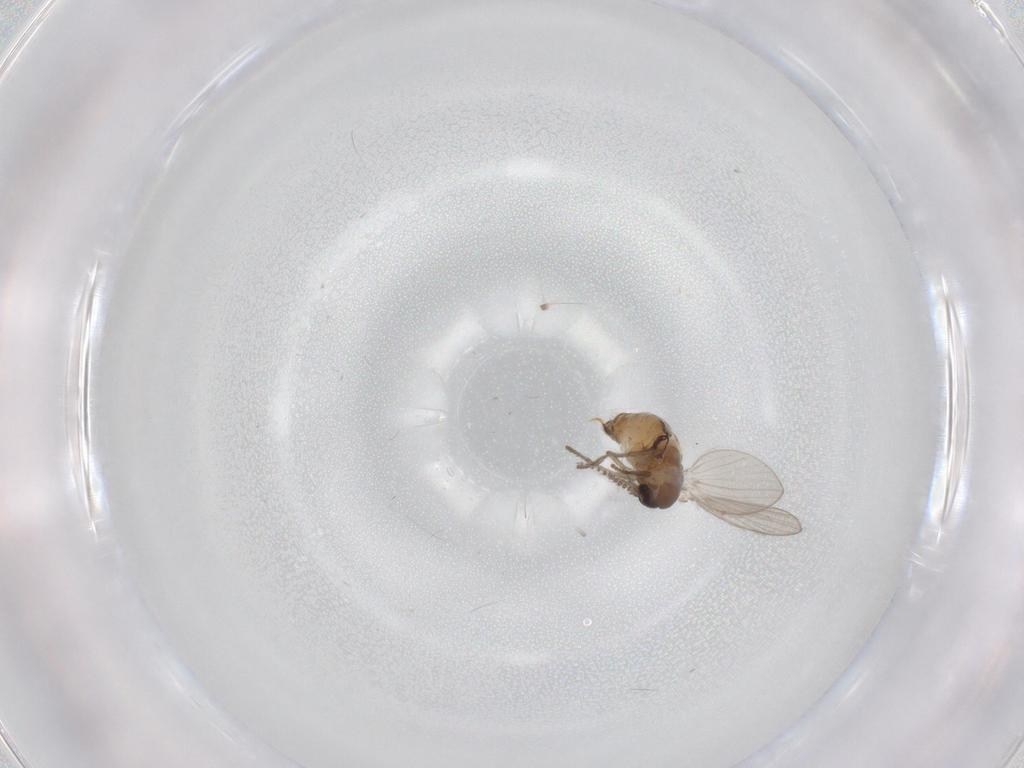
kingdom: Animalia
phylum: Arthropoda
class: Insecta
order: Diptera
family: Psychodidae
